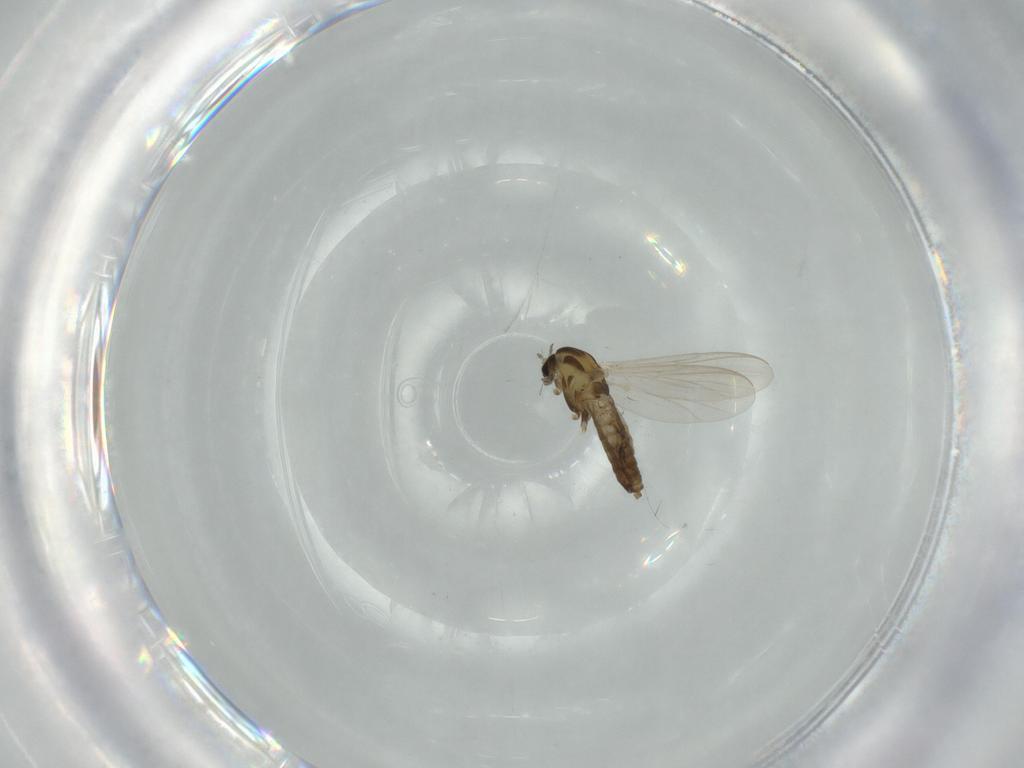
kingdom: Animalia
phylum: Arthropoda
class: Insecta
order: Diptera
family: Chironomidae
